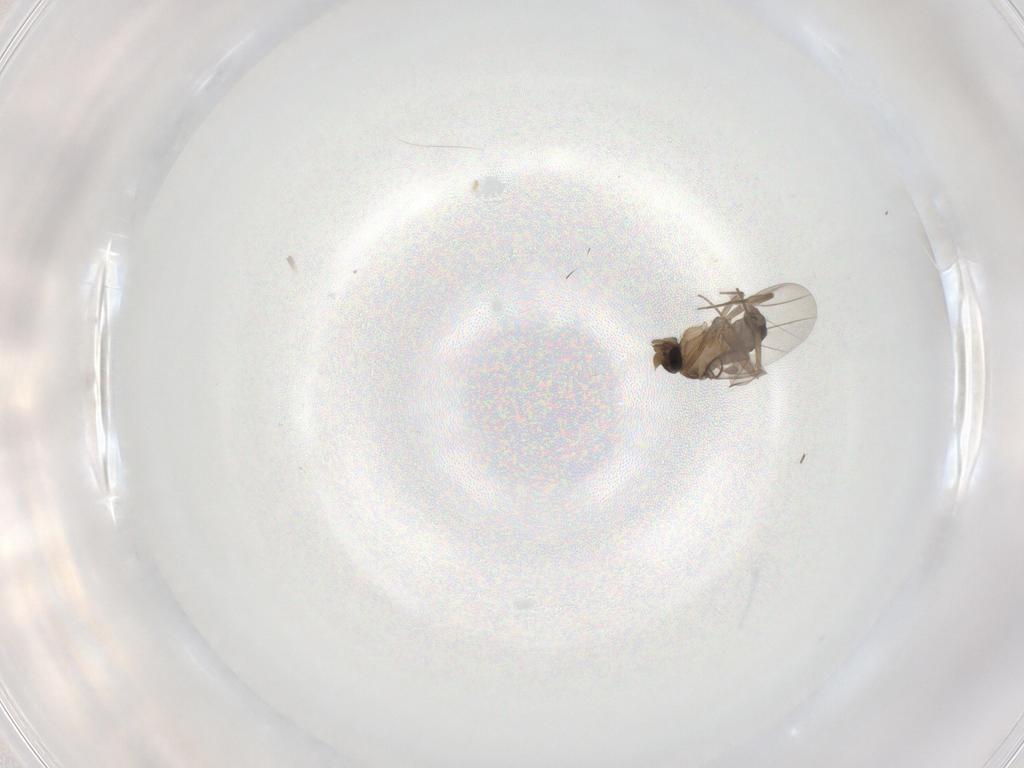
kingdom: Animalia
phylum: Arthropoda
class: Insecta
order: Diptera
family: Phoridae
